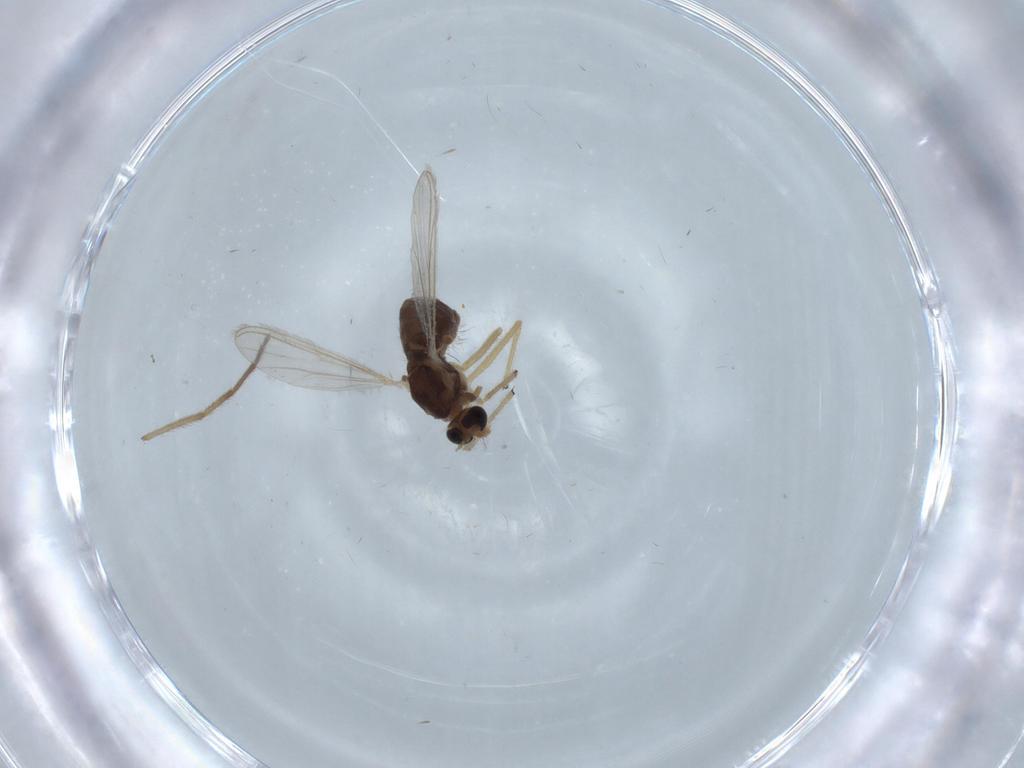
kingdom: Animalia
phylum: Arthropoda
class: Insecta
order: Diptera
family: Chironomidae
